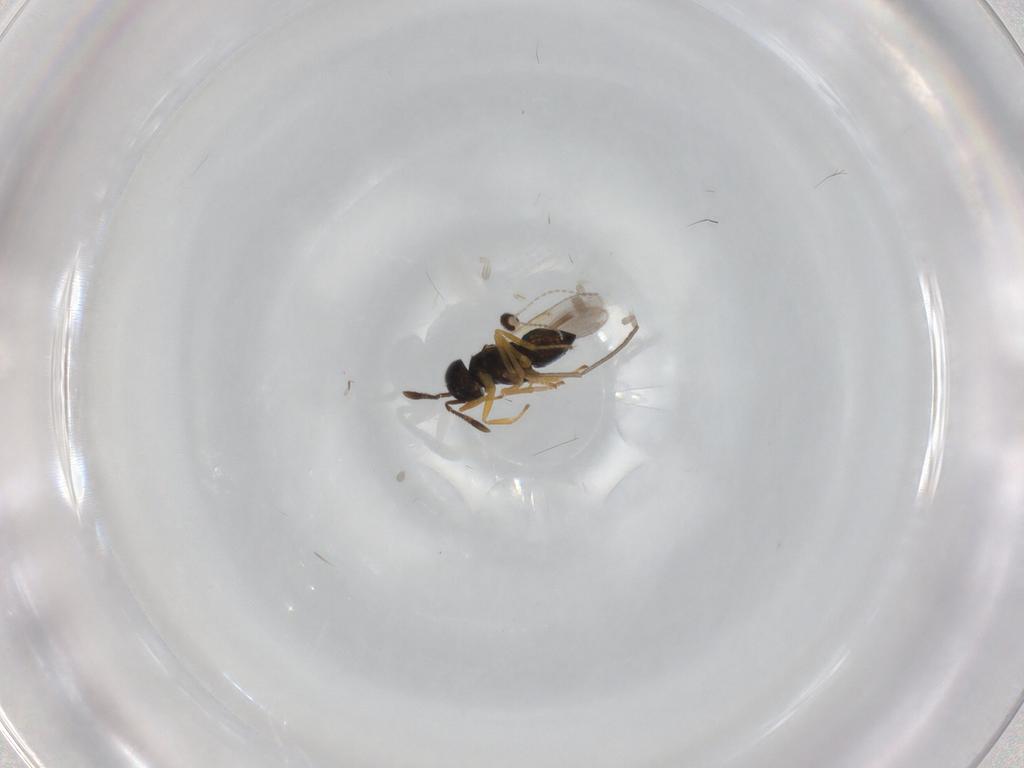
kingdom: Animalia
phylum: Arthropoda
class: Insecta
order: Hymenoptera
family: Encyrtidae
